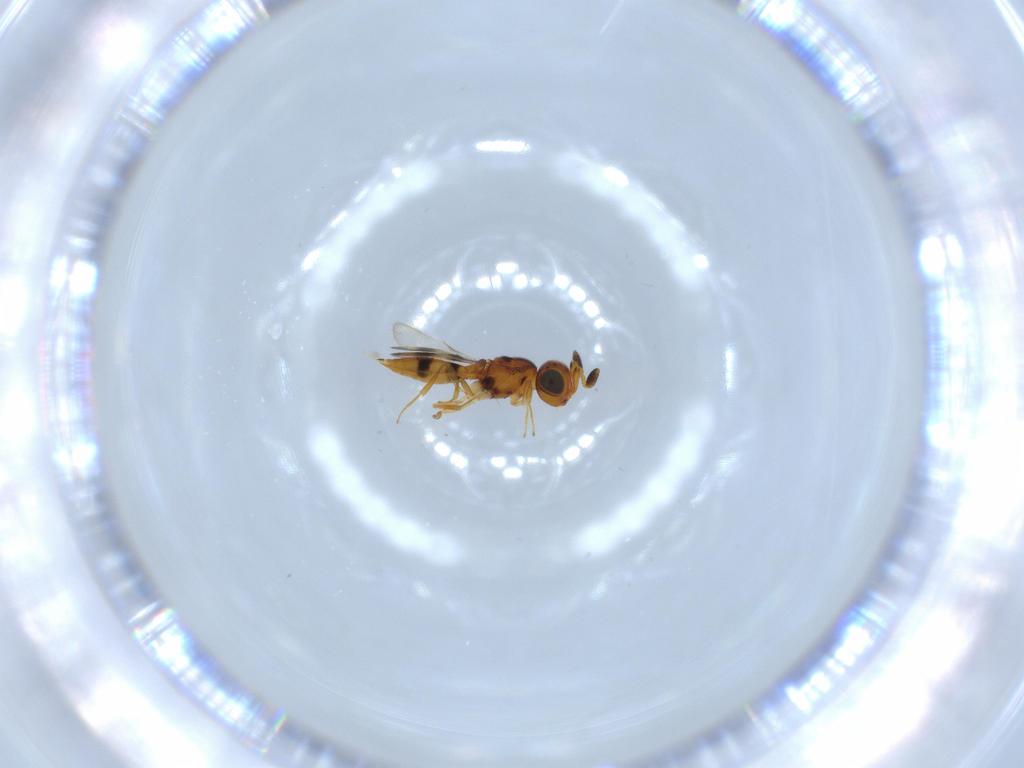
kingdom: Animalia
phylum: Arthropoda
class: Insecta
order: Hymenoptera
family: Scelionidae
